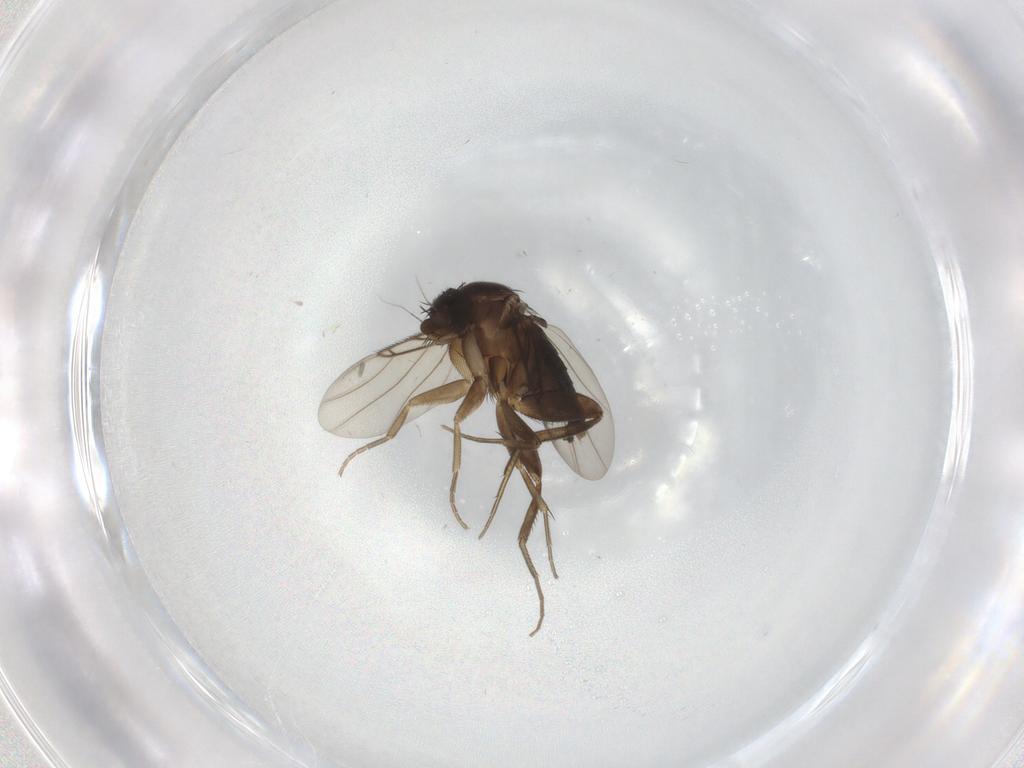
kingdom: Animalia
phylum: Arthropoda
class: Insecta
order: Diptera
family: Phoridae
